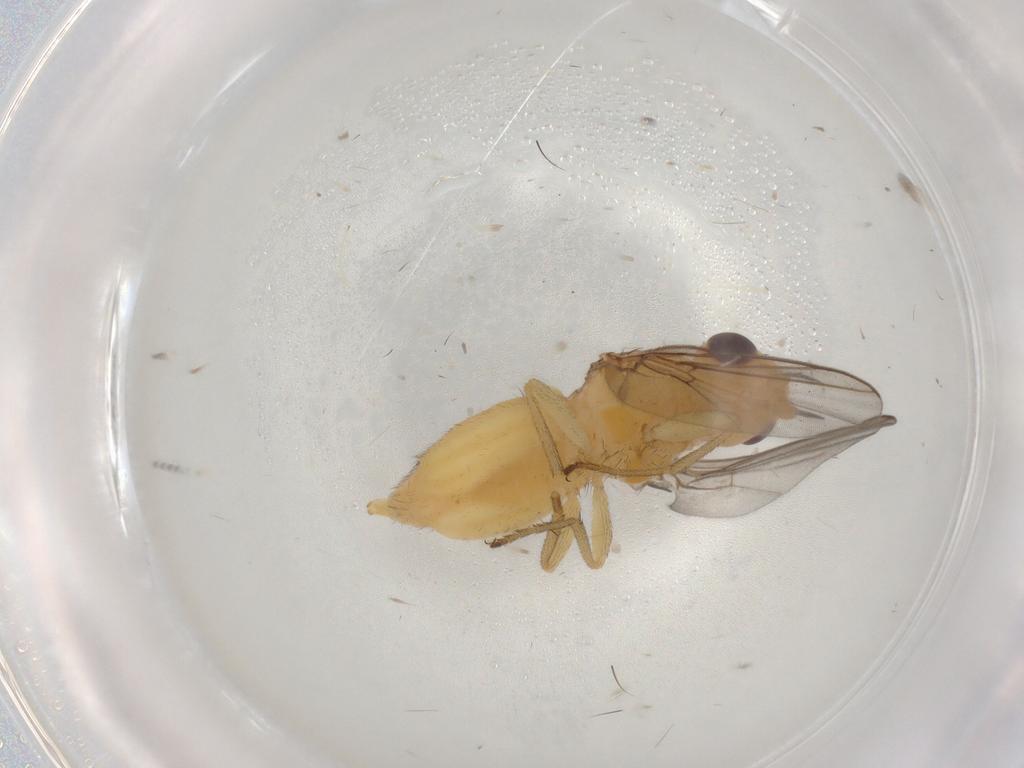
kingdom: Animalia
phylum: Arthropoda
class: Insecta
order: Diptera
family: Chloropidae
